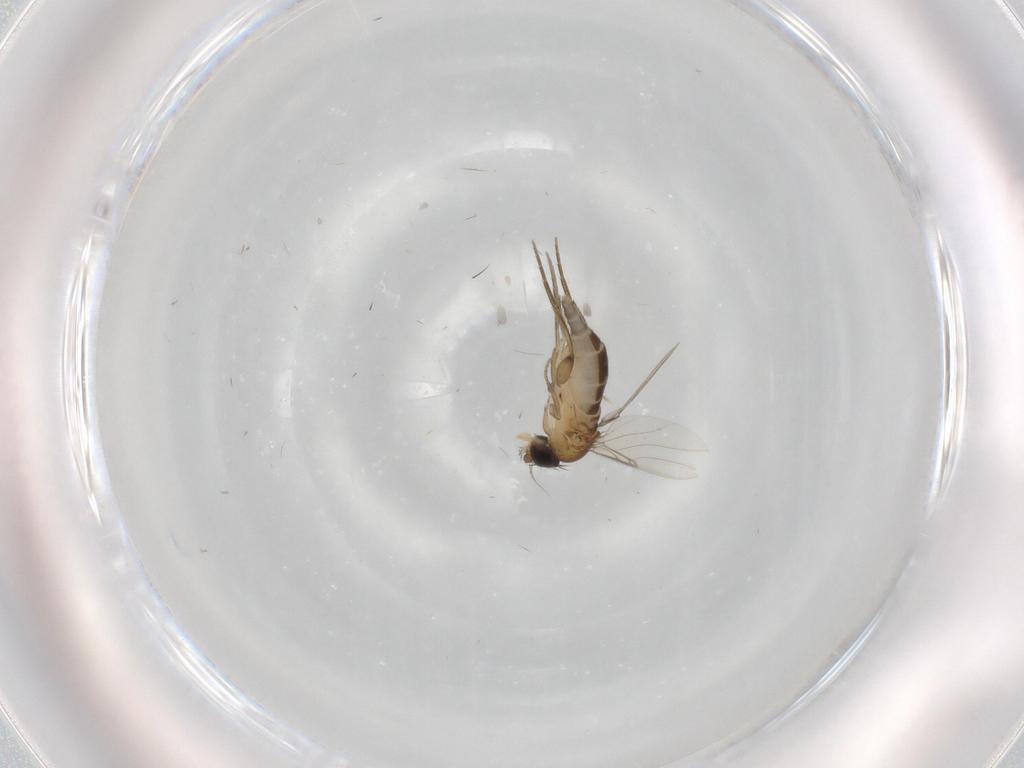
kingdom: Animalia
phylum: Arthropoda
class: Insecta
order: Diptera
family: Phoridae
